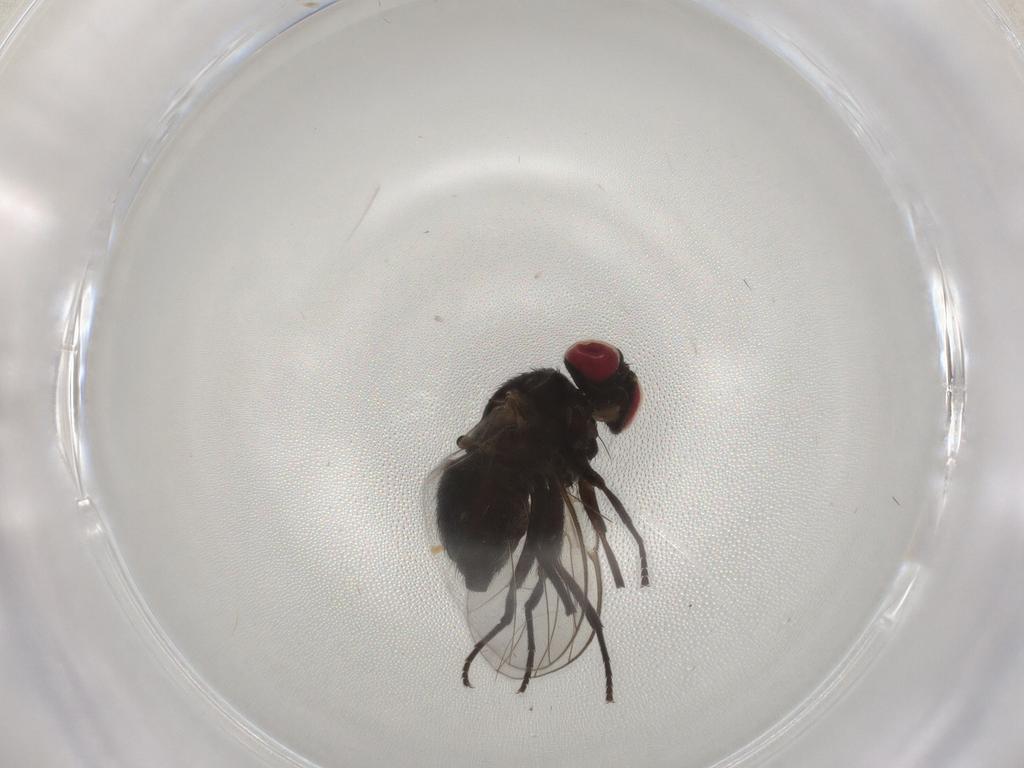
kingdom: Animalia
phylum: Arthropoda
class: Insecta
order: Diptera
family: Agromyzidae
